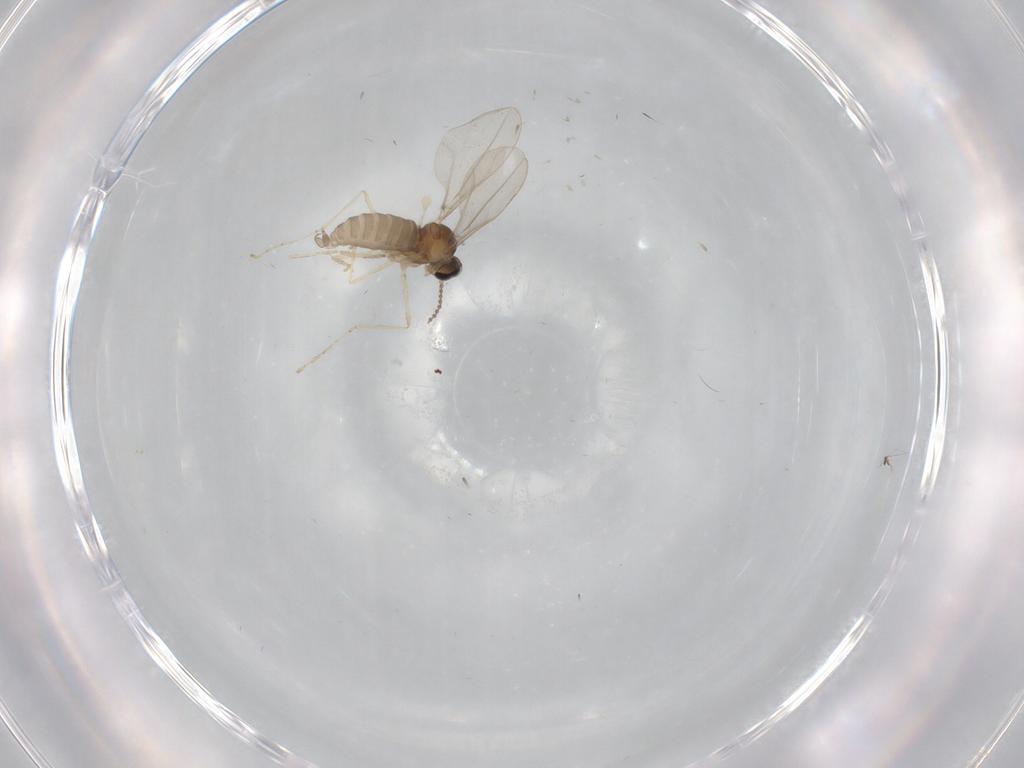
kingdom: Animalia
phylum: Arthropoda
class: Insecta
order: Diptera
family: Cecidomyiidae
